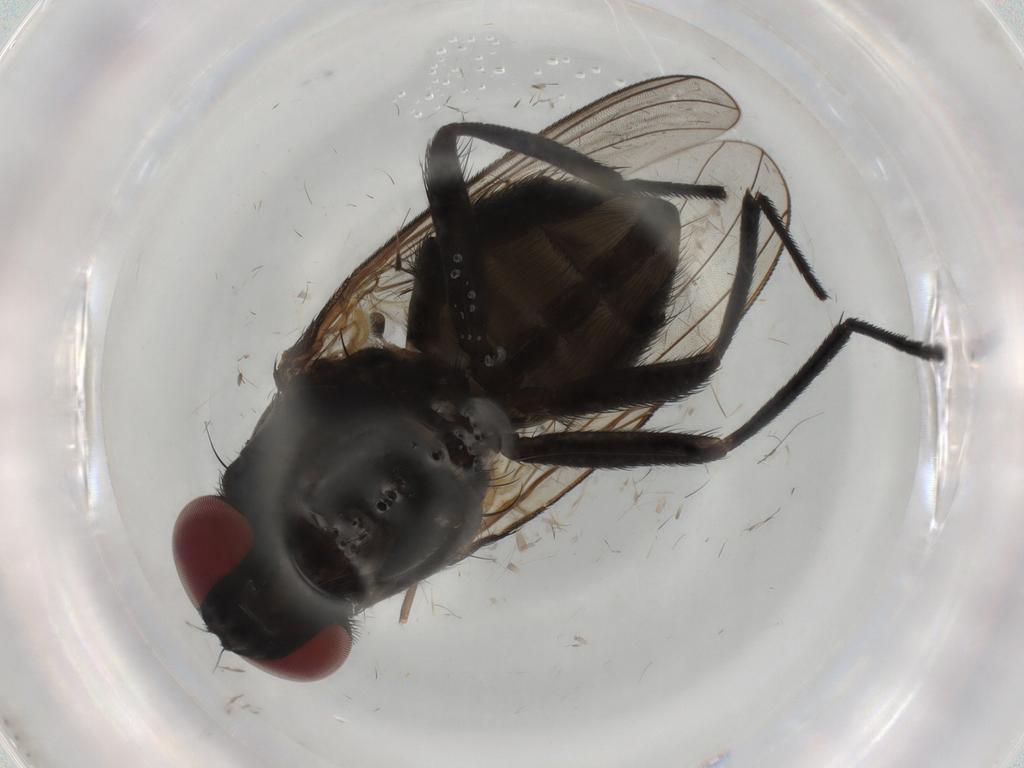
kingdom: Animalia
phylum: Arthropoda
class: Insecta
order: Diptera
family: Muscidae
